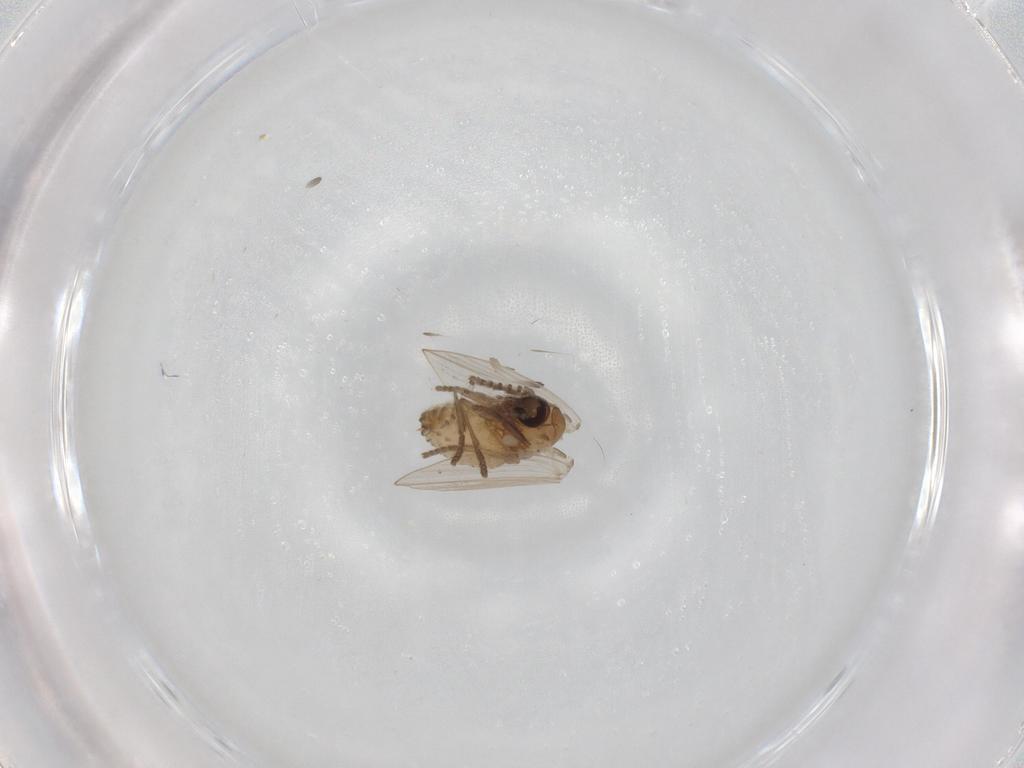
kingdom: Animalia
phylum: Arthropoda
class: Insecta
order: Diptera
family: Psychodidae
